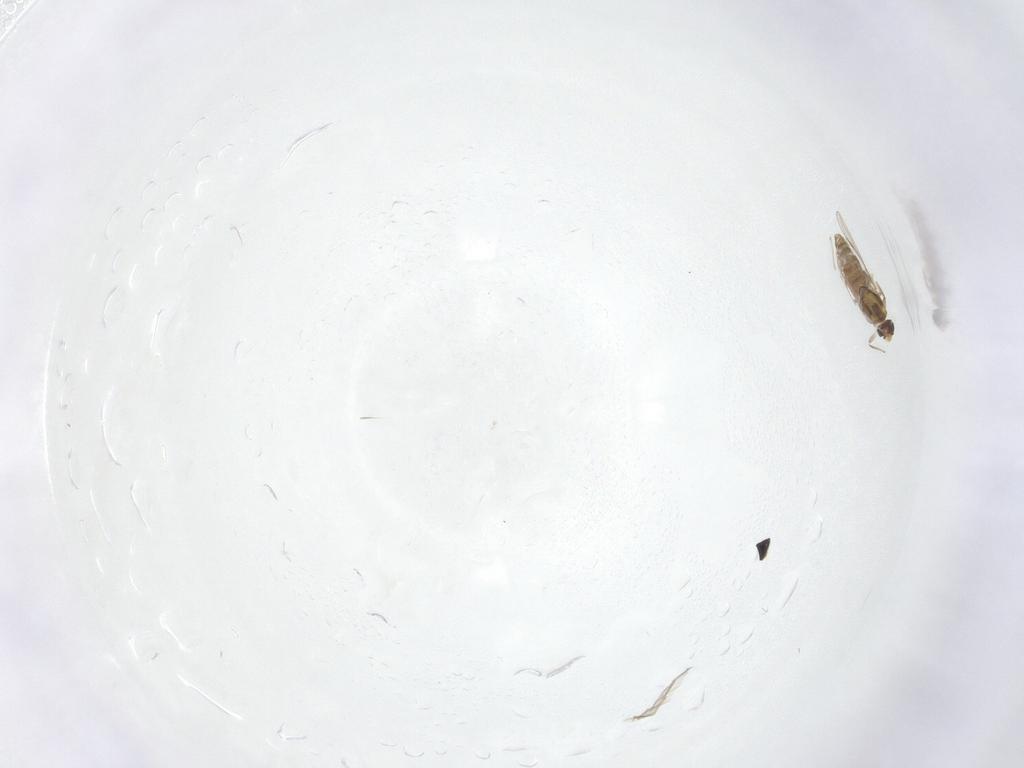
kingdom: Animalia
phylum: Arthropoda
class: Insecta
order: Diptera
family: Chironomidae
